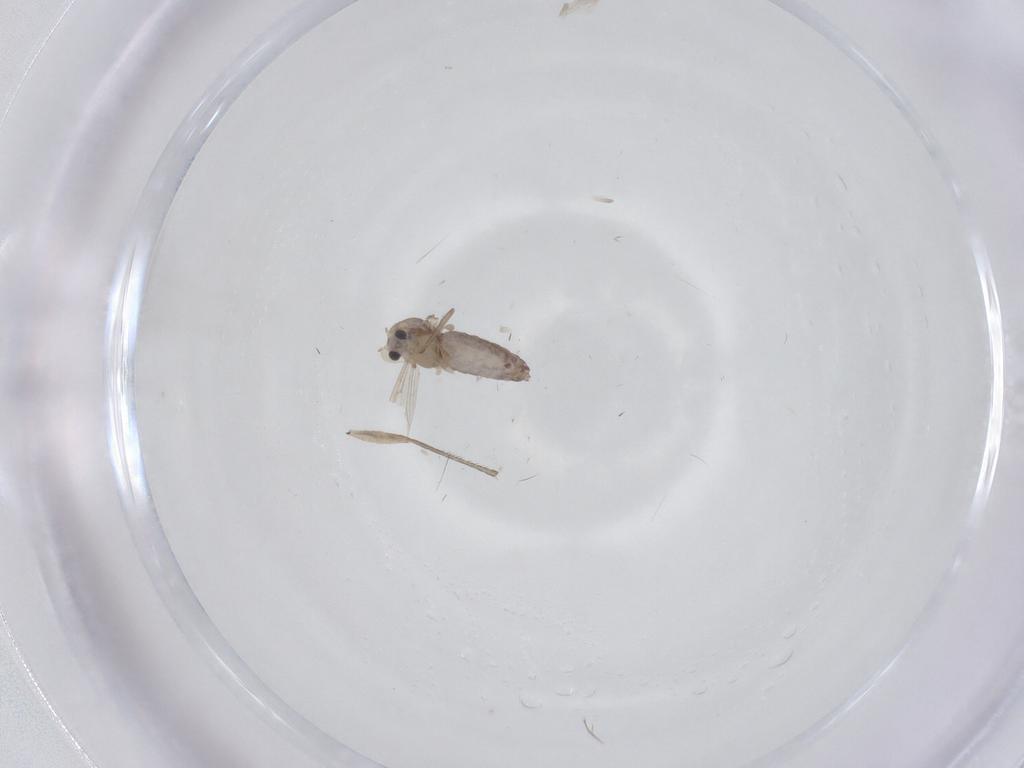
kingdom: Animalia
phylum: Arthropoda
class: Insecta
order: Diptera
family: Chironomidae
